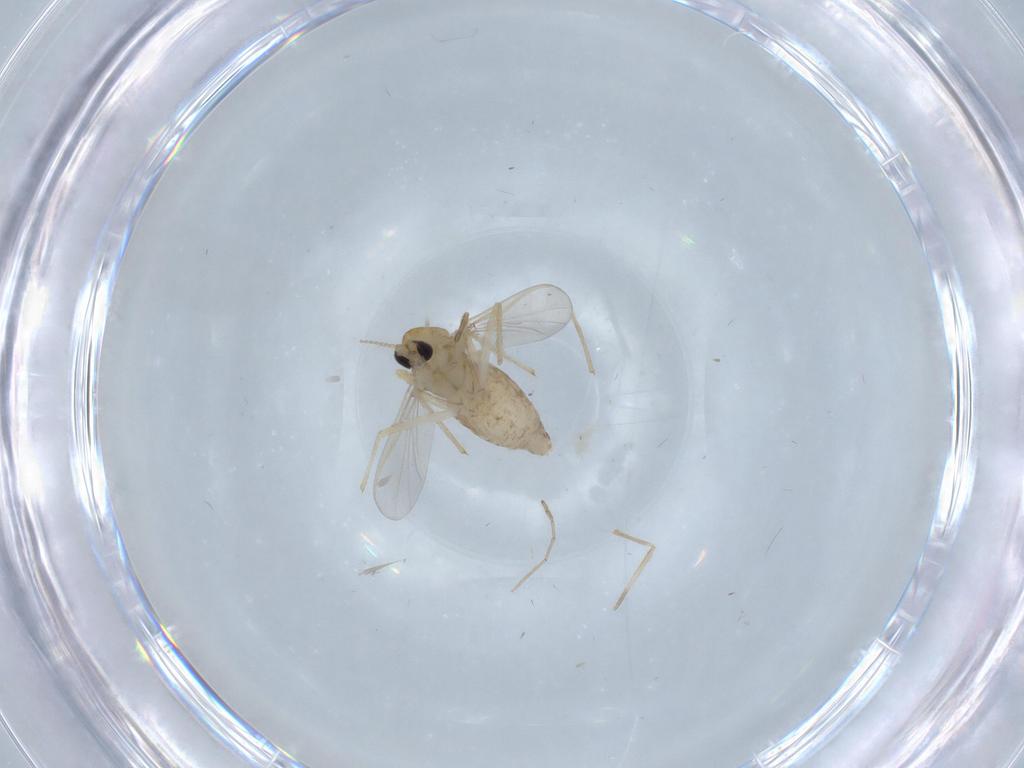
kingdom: Animalia
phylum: Arthropoda
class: Insecta
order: Diptera
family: Chironomidae
